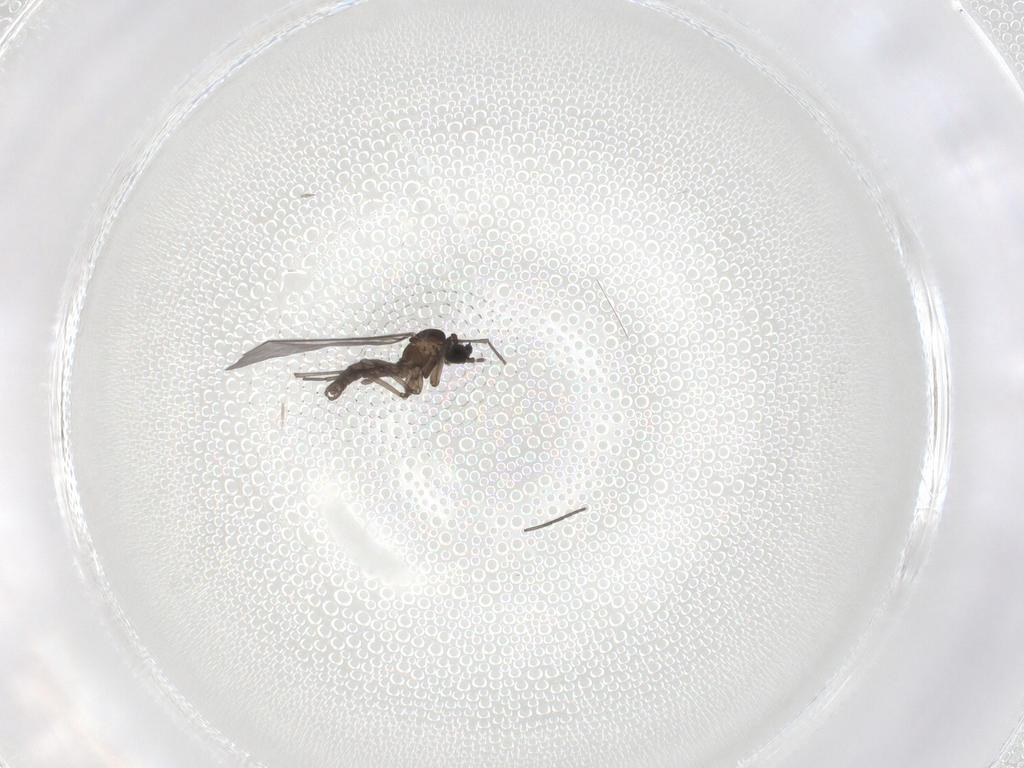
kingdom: Animalia
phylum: Arthropoda
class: Insecta
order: Diptera
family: Sciaridae
